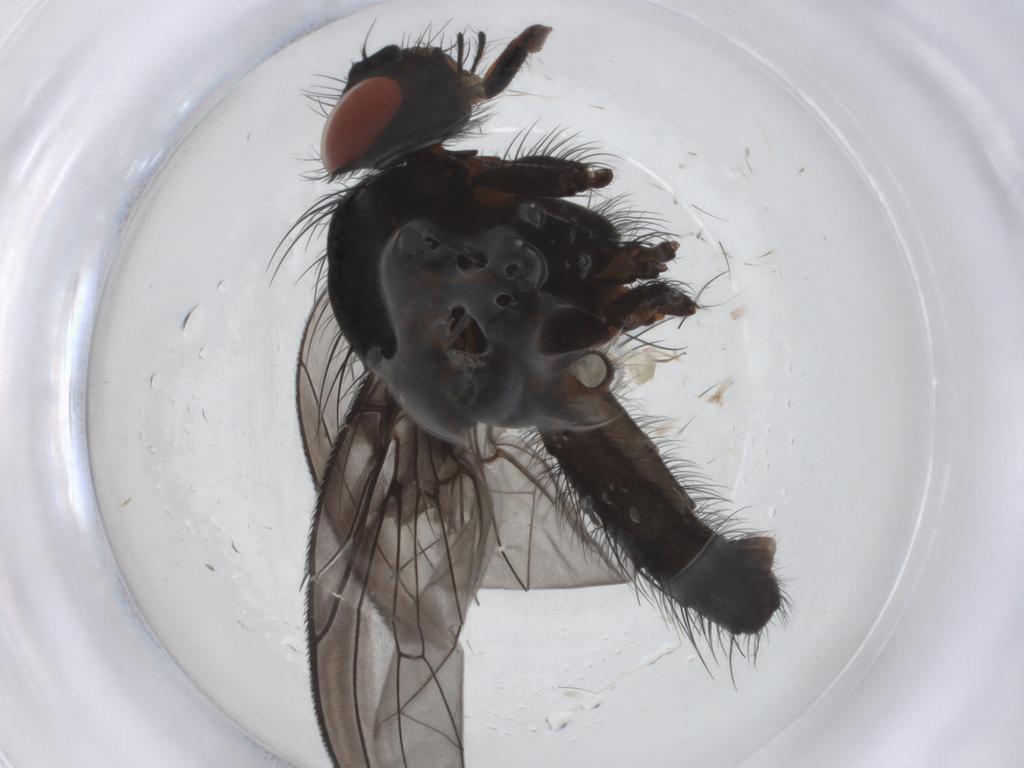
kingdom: Animalia
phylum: Arthropoda
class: Insecta
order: Diptera
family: Anthomyiidae
